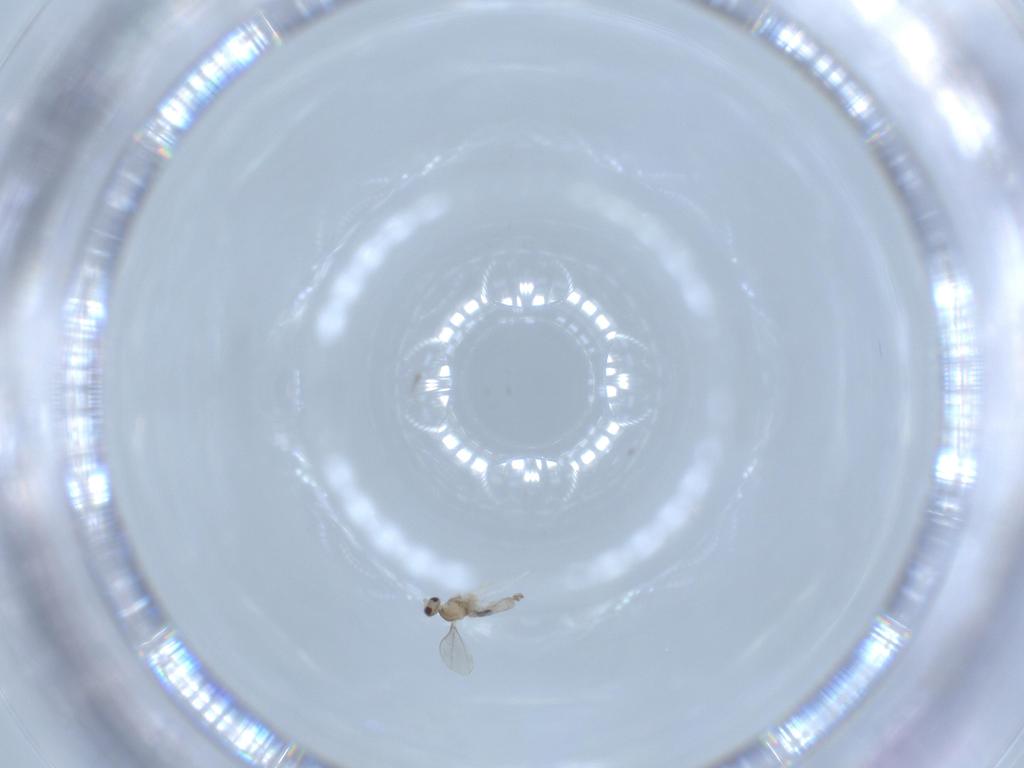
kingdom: Animalia
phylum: Arthropoda
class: Insecta
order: Diptera
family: Cecidomyiidae
